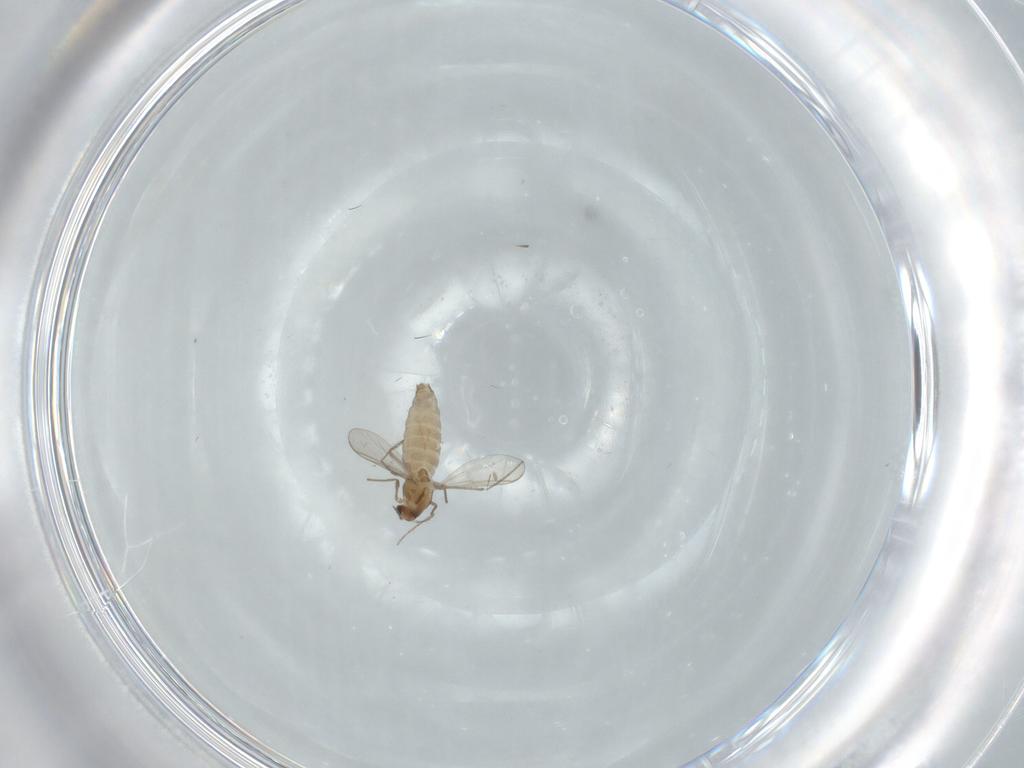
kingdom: Animalia
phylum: Arthropoda
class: Insecta
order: Diptera
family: Chironomidae
